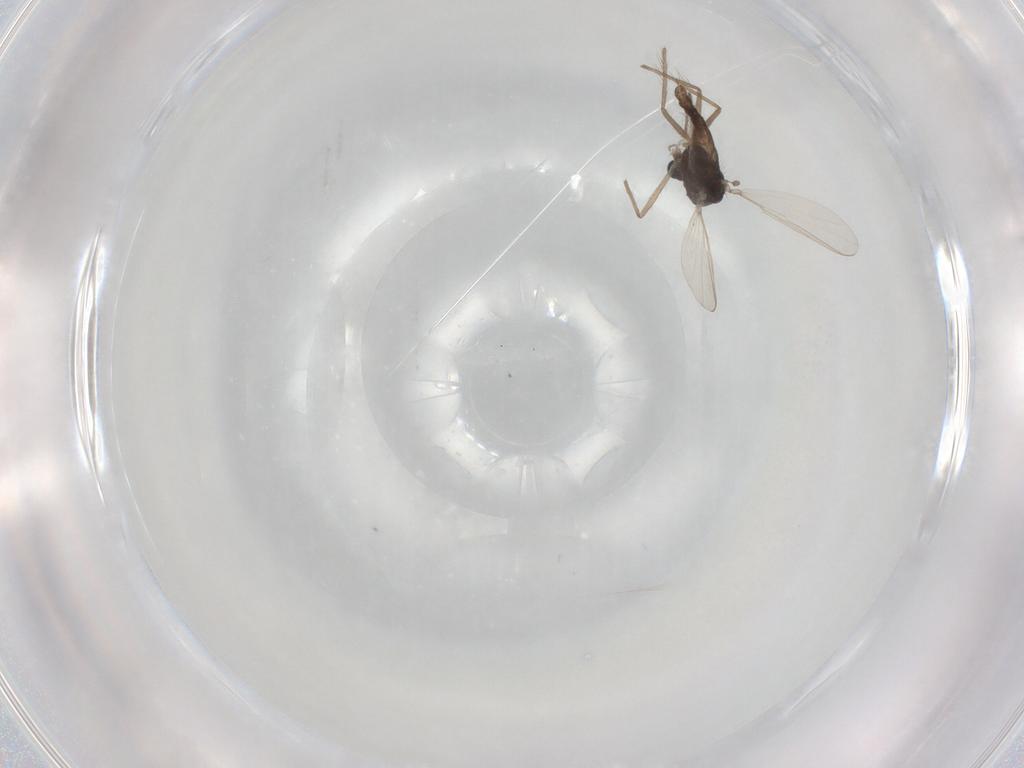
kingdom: Animalia
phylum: Arthropoda
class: Insecta
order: Diptera
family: Chironomidae
